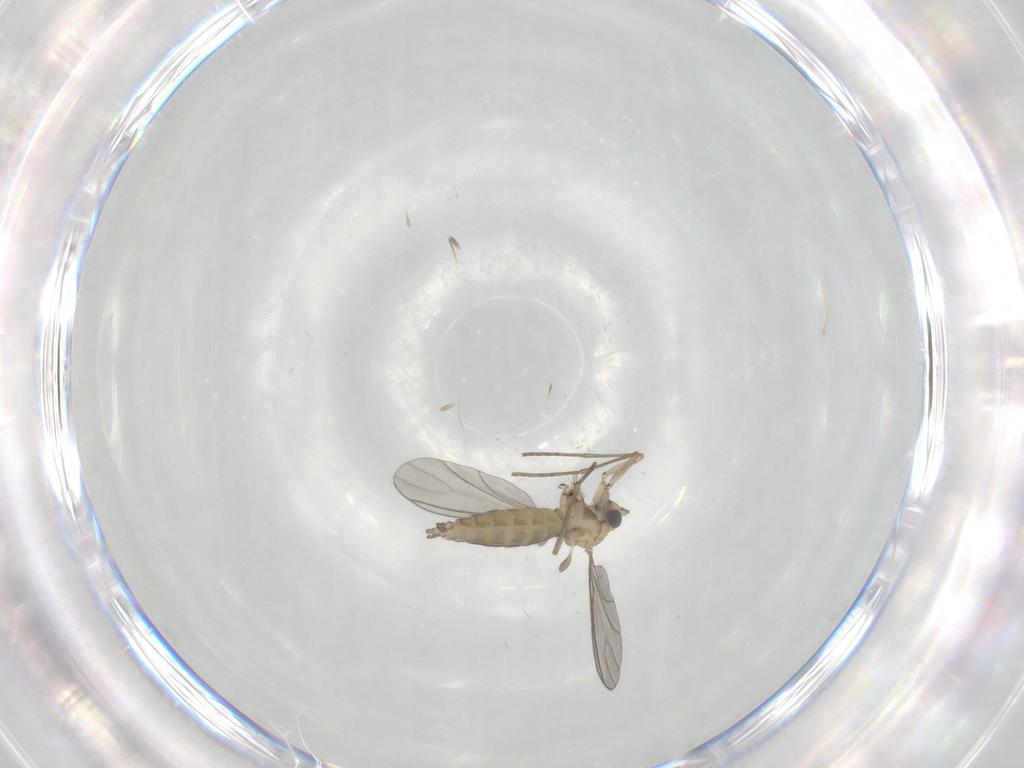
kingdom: Animalia
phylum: Arthropoda
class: Insecta
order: Diptera
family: Sciaridae
